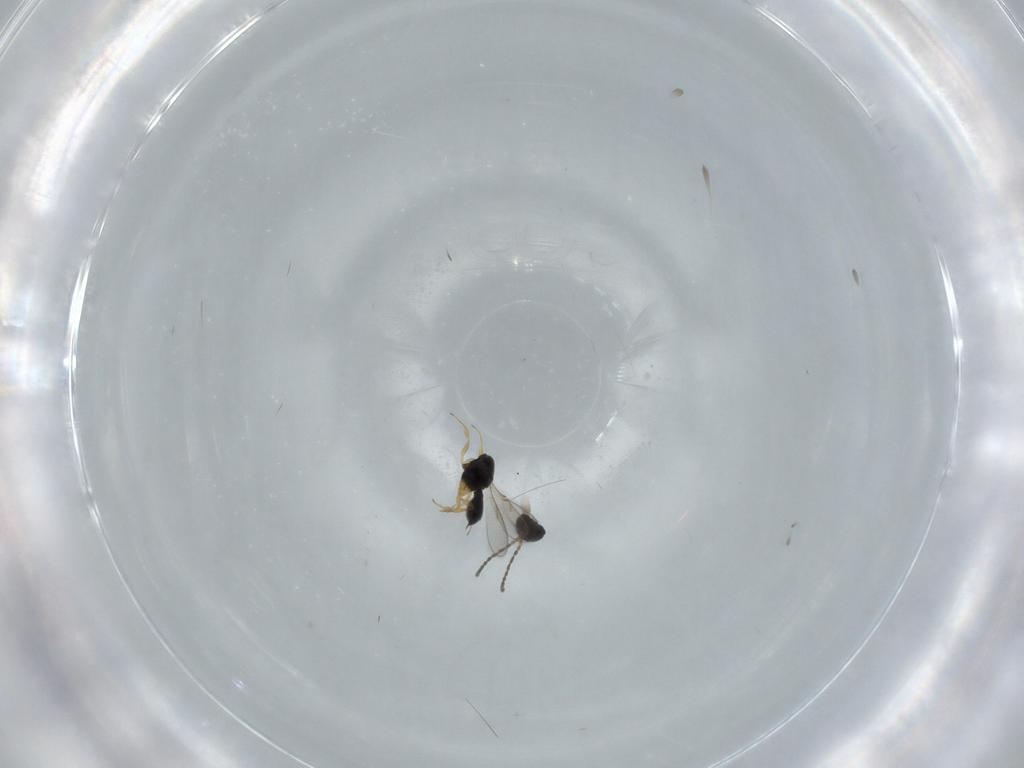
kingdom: Animalia
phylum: Arthropoda
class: Insecta
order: Hymenoptera
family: Scelionidae
